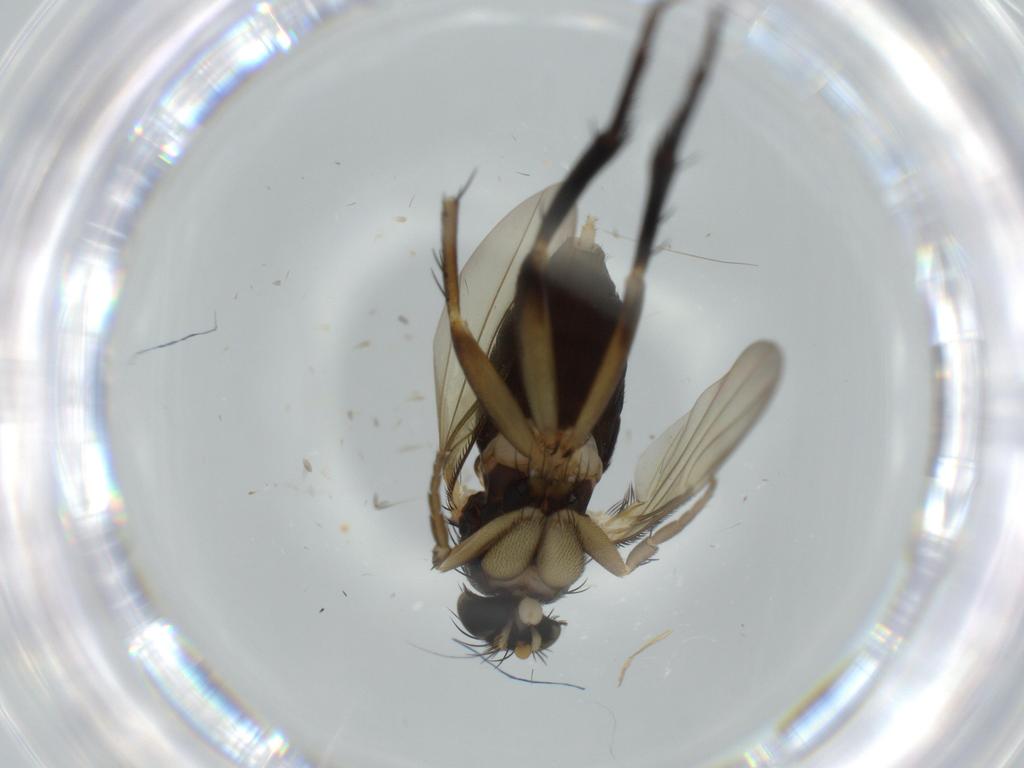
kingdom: Animalia
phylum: Arthropoda
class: Insecta
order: Diptera
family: Phoridae
